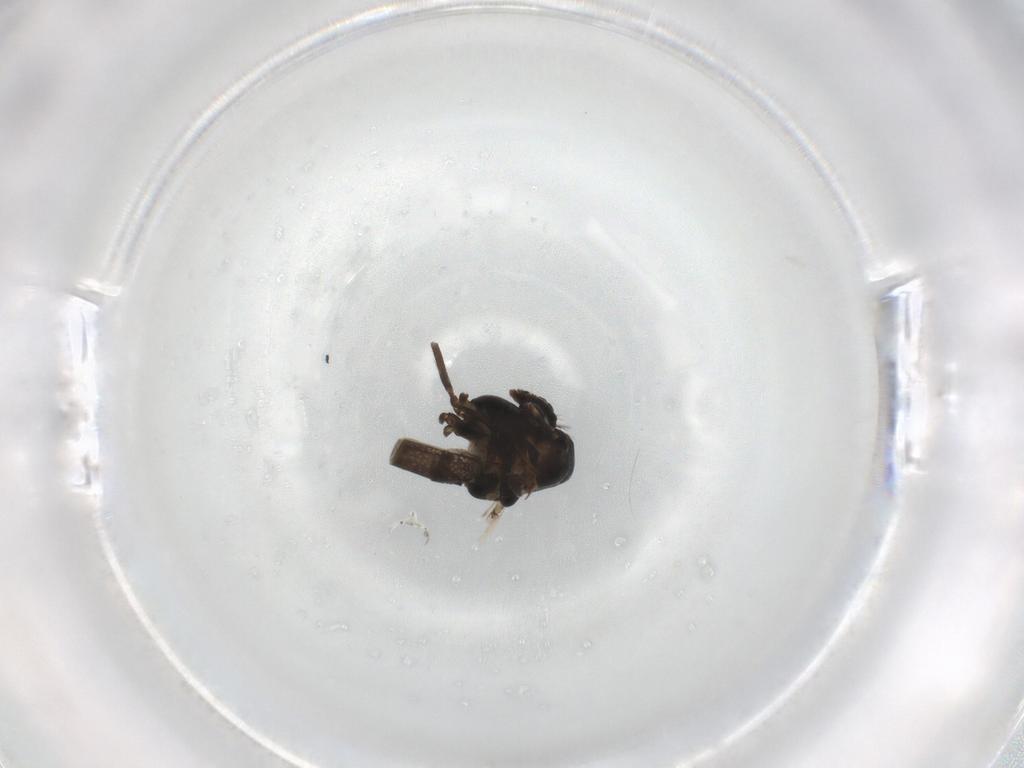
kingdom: Animalia
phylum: Arthropoda
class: Insecta
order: Diptera
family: Chironomidae
